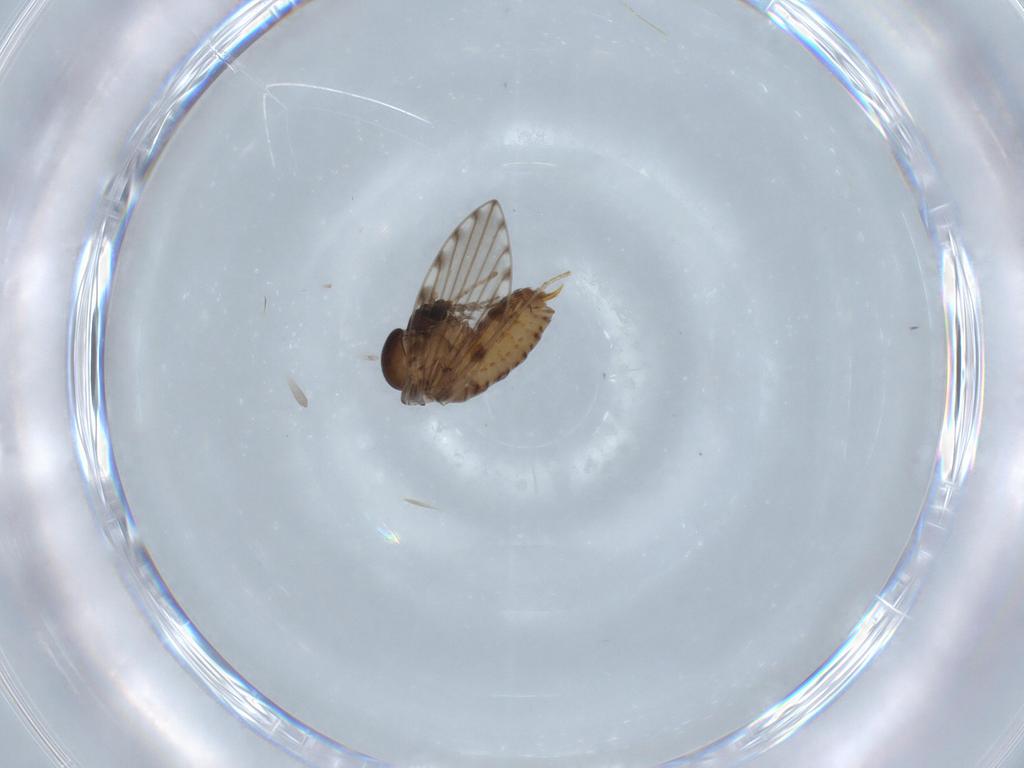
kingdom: Animalia
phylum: Arthropoda
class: Insecta
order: Diptera
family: Psychodidae
